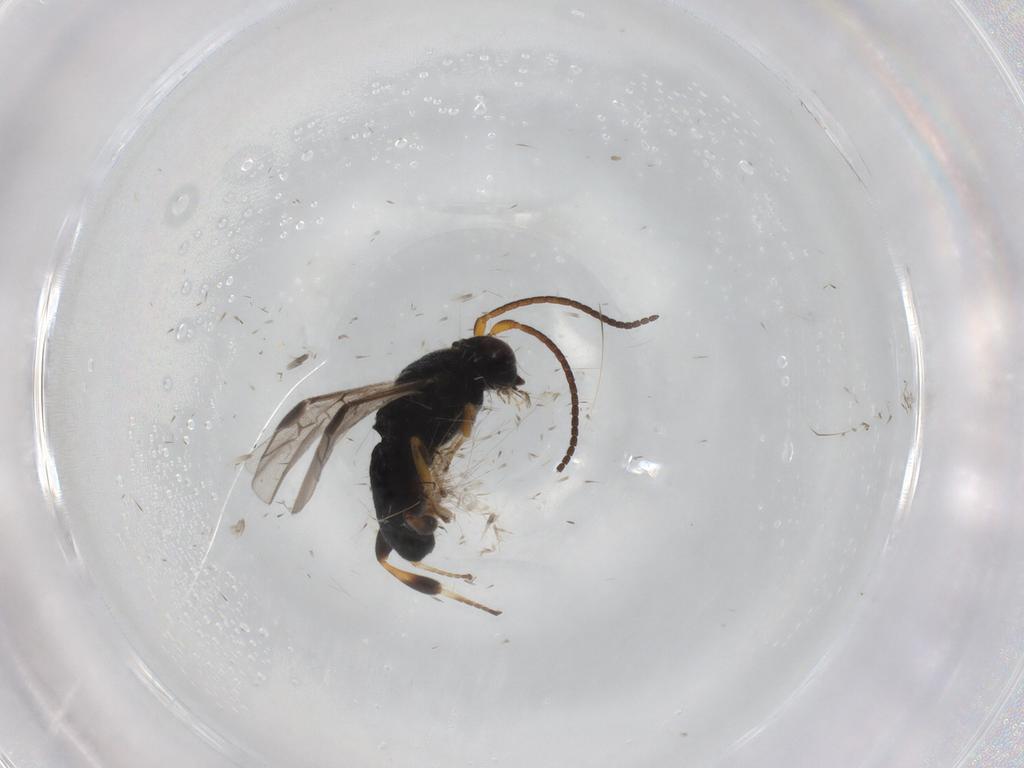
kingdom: Animalia
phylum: Arthropoda
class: Insecta
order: Hymenoptera
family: Braconidae
